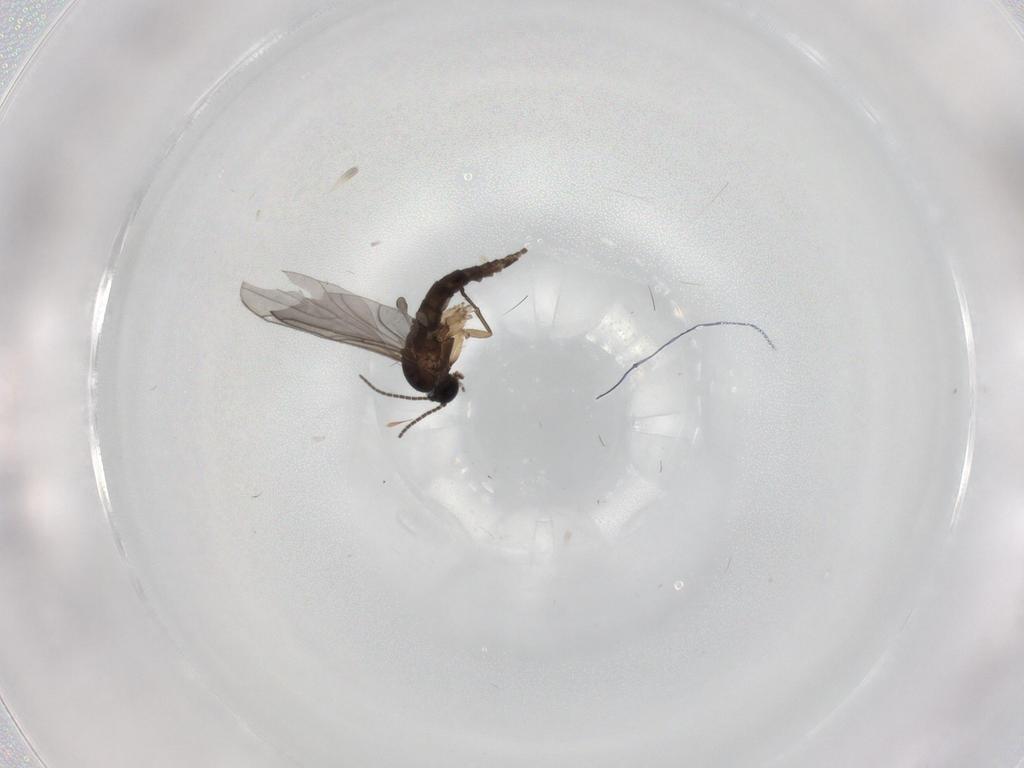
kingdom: Animalia
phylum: Arthropoda
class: Insecta
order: Diptera
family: Sciaridae
